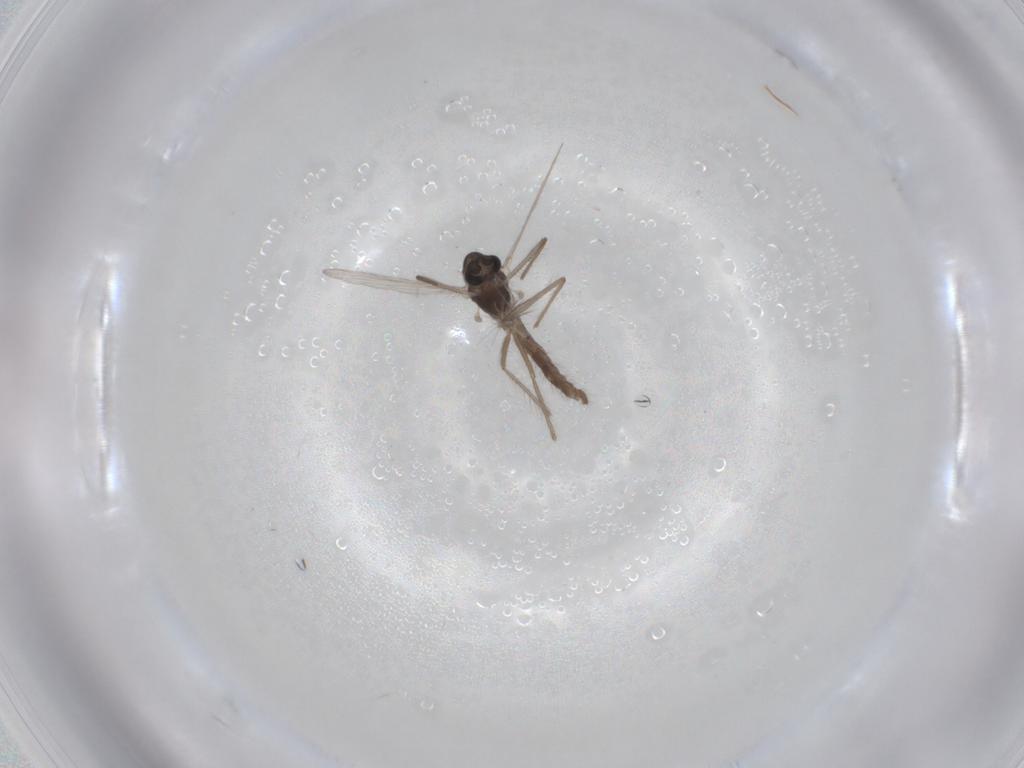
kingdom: Animalia
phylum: Arthropoda
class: Insecta
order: Diptera
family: Chironomidae
